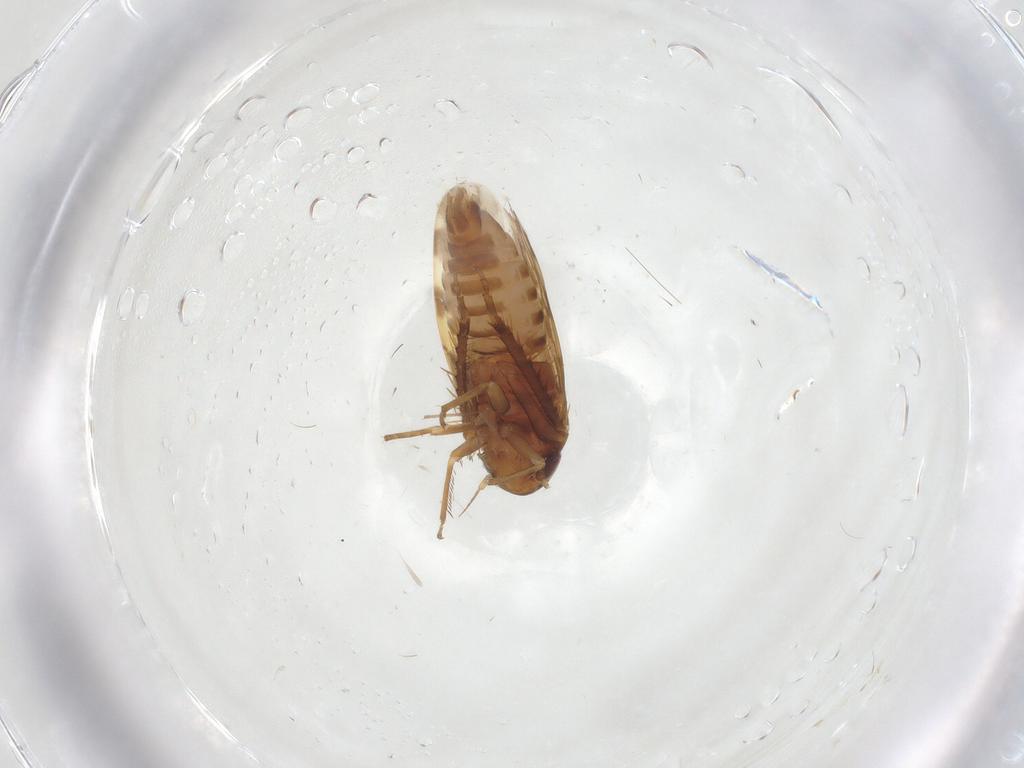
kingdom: Animalia
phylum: Arthropoda
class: Insecta
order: Hemiptera
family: Cicadellidae
